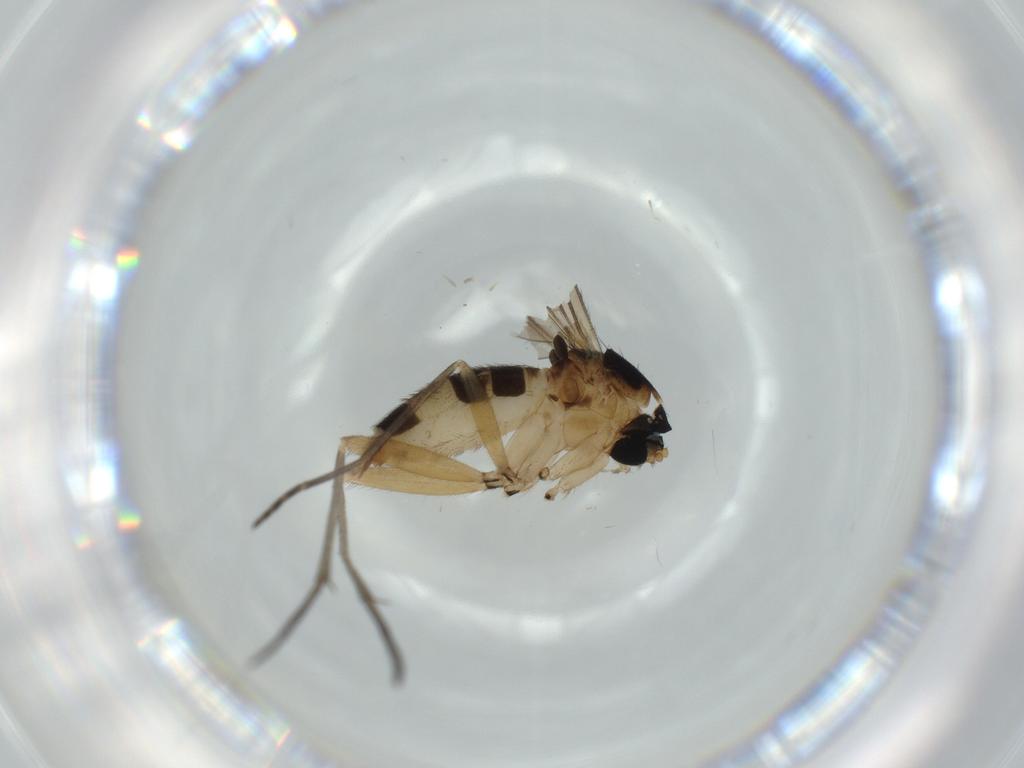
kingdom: Animalia
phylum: Arthropoda
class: Insecta
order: Diptera
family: Sciaridae
